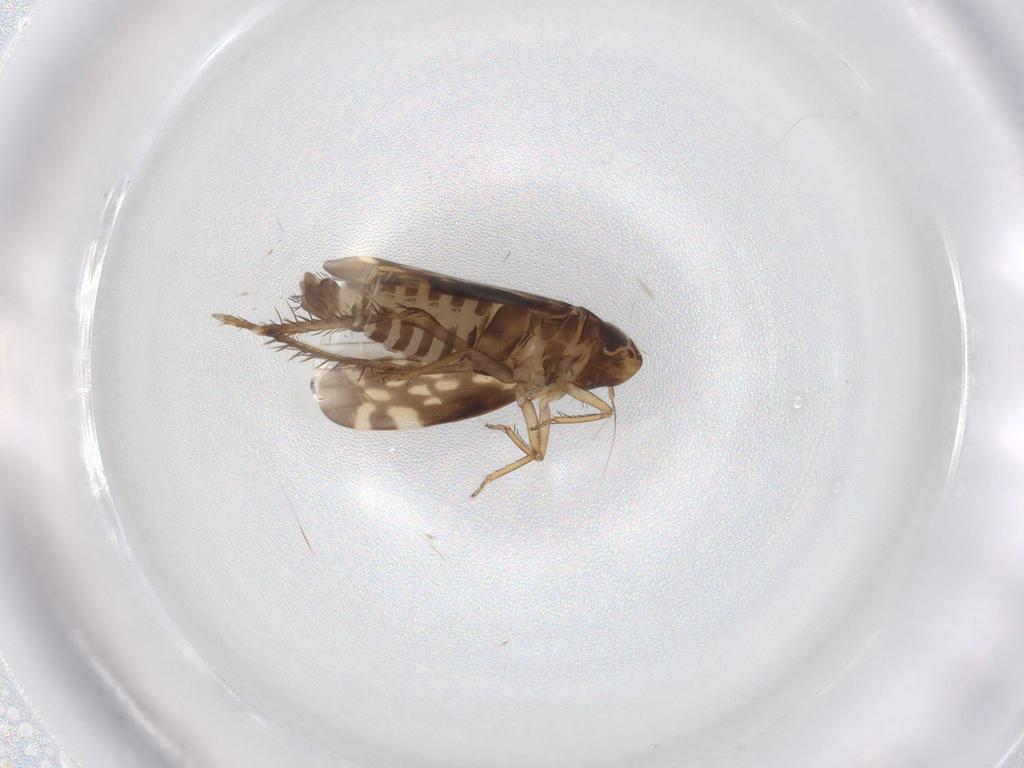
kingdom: Animalia
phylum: Arthropoda
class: Insecta
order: Hemiptera
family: Cicadellidae
